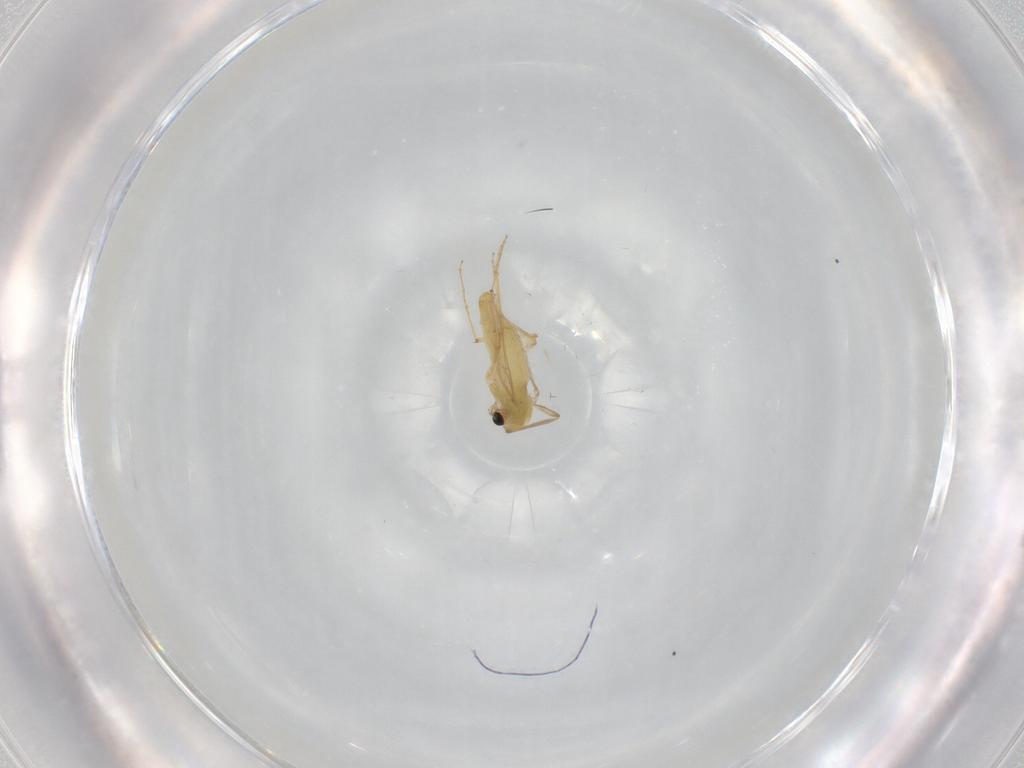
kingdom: Animalia
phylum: Arthropoda
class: Insecta
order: Diptera
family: Chironomidae
